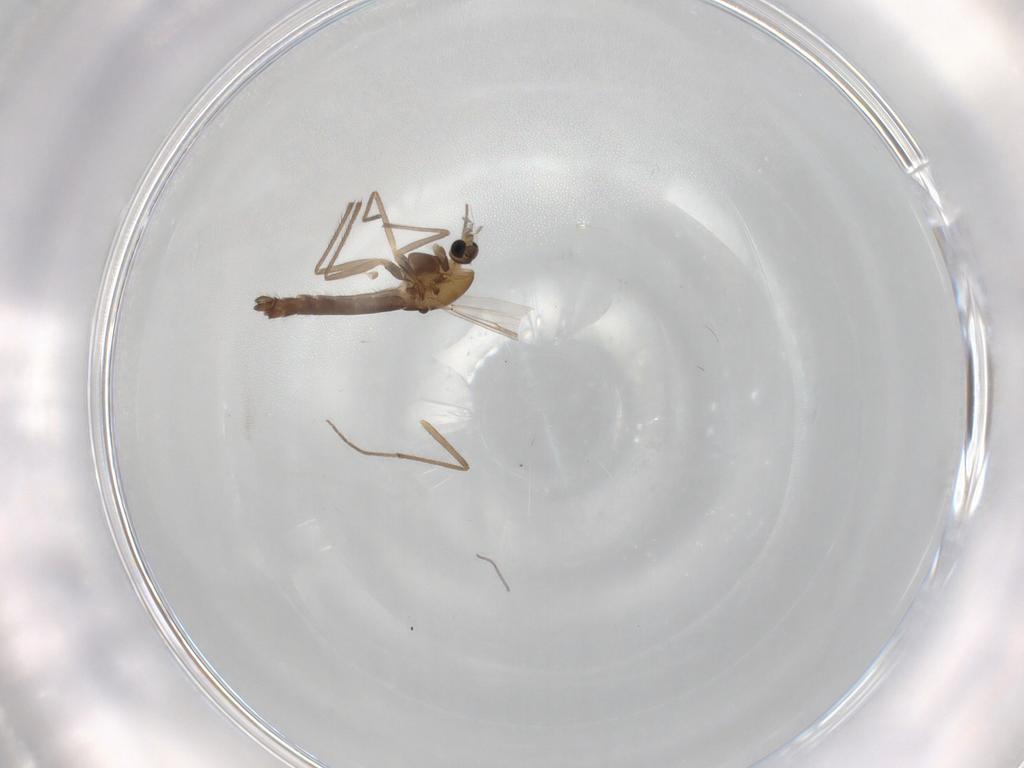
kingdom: Animalia
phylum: Arthropoda
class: Insecta
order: Diptera
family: Chironomidae
